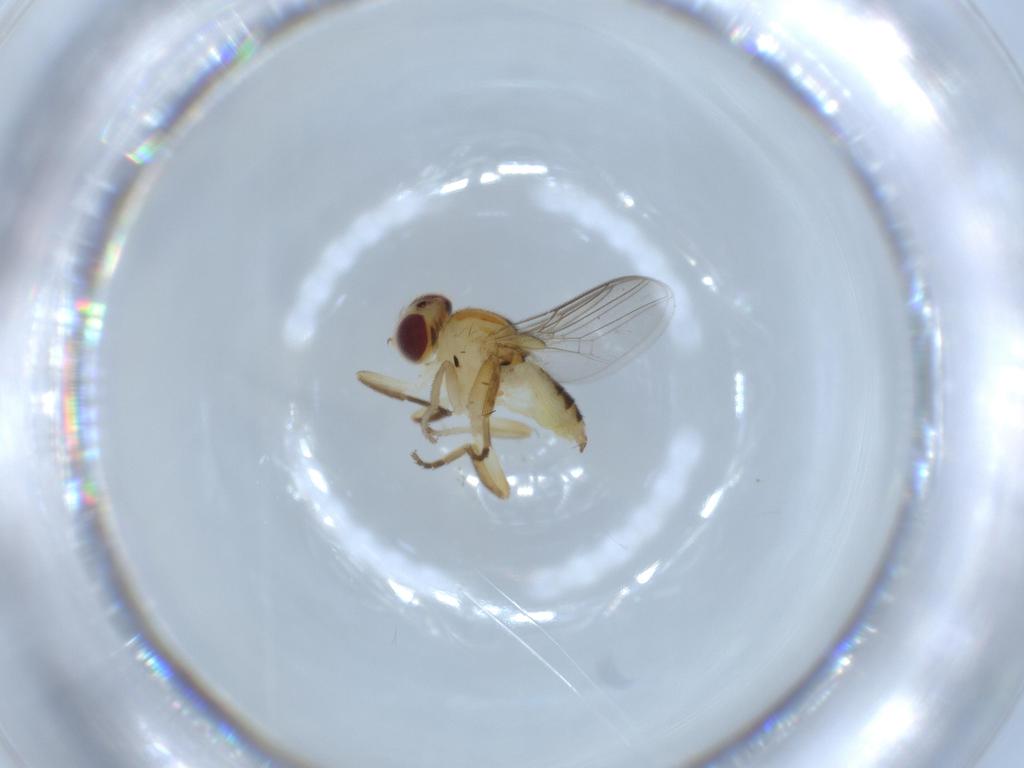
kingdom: Animalia
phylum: Arthropoda
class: Insecta
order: Diptera
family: Chloropidae
